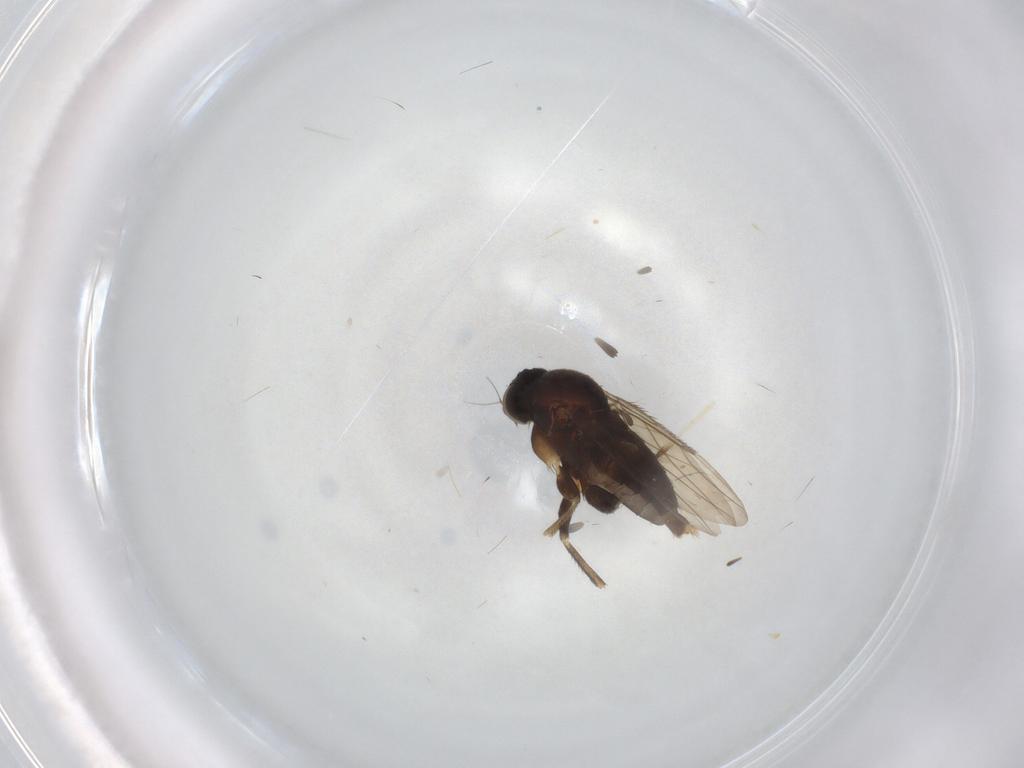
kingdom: Animalia
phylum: Arthropoda
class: Insecta
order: Diptera
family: Phoridae
